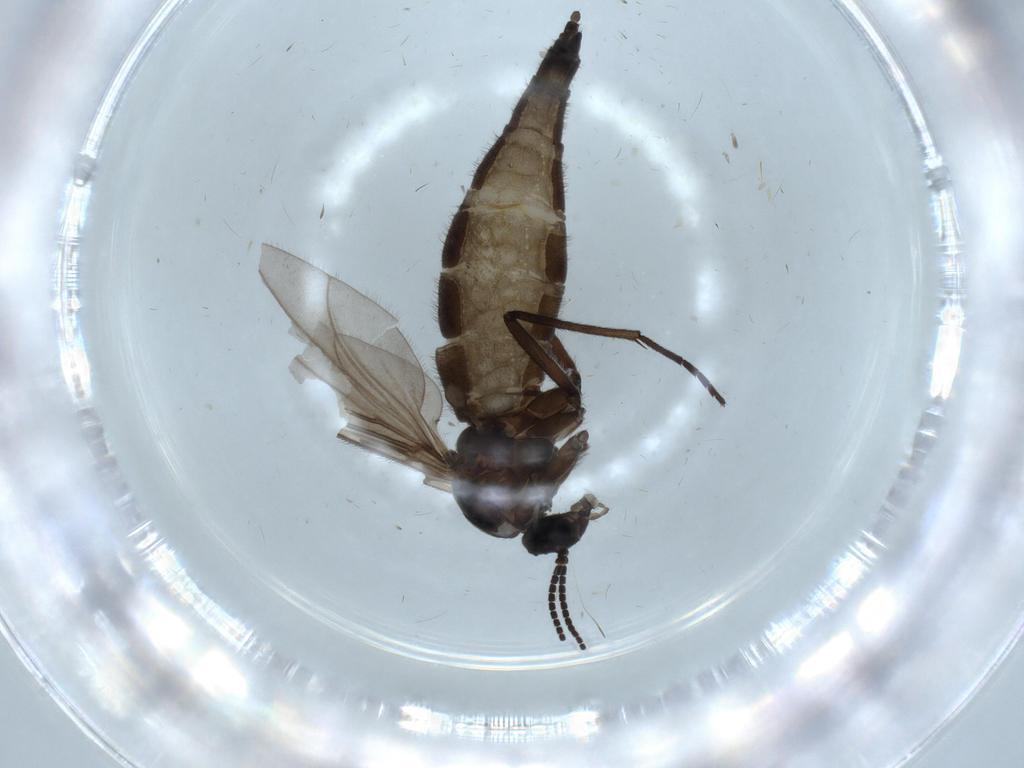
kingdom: Animalia
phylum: Arthropoda
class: Insecta
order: Diptera
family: Sciaridae
